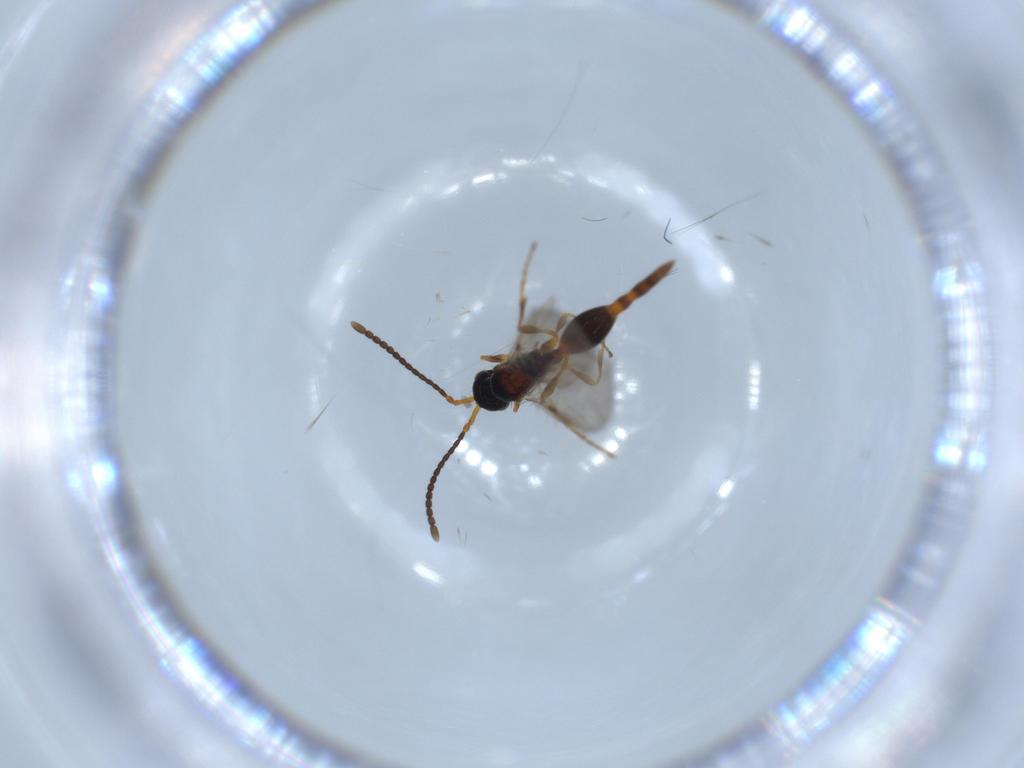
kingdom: Animalia
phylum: Arthropoda
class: Insecta
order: Hymenoptera
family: Diapriidae
